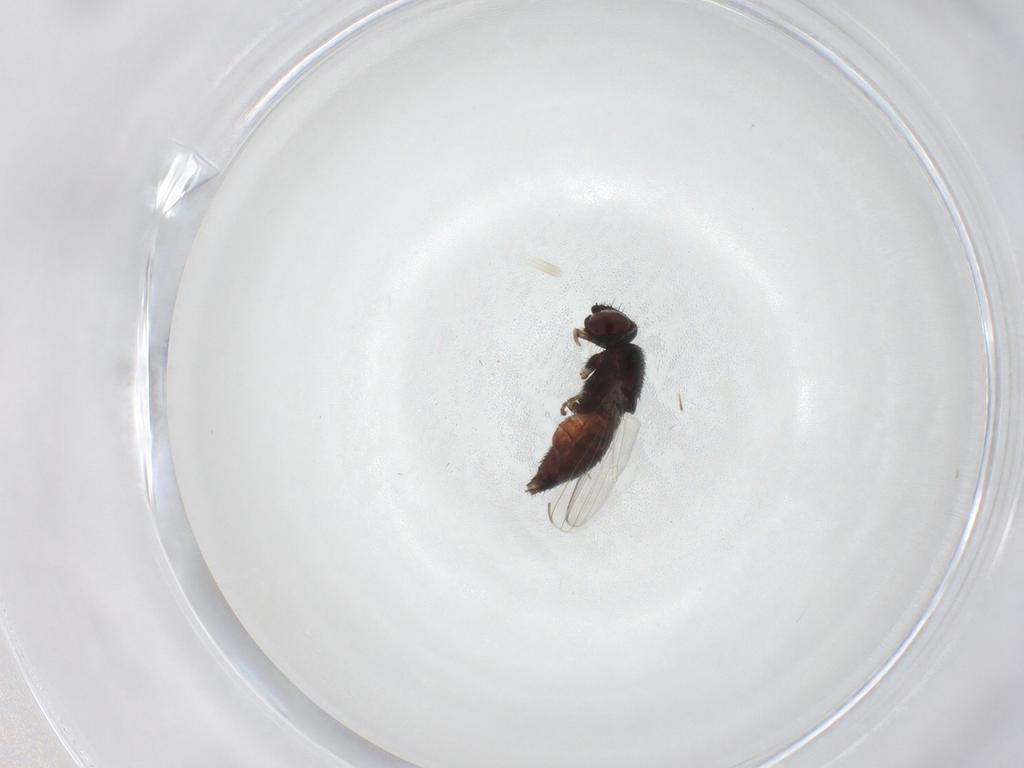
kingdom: Animalia
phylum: Arthropoda
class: Insecta
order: Diptera
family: Milichiidae
